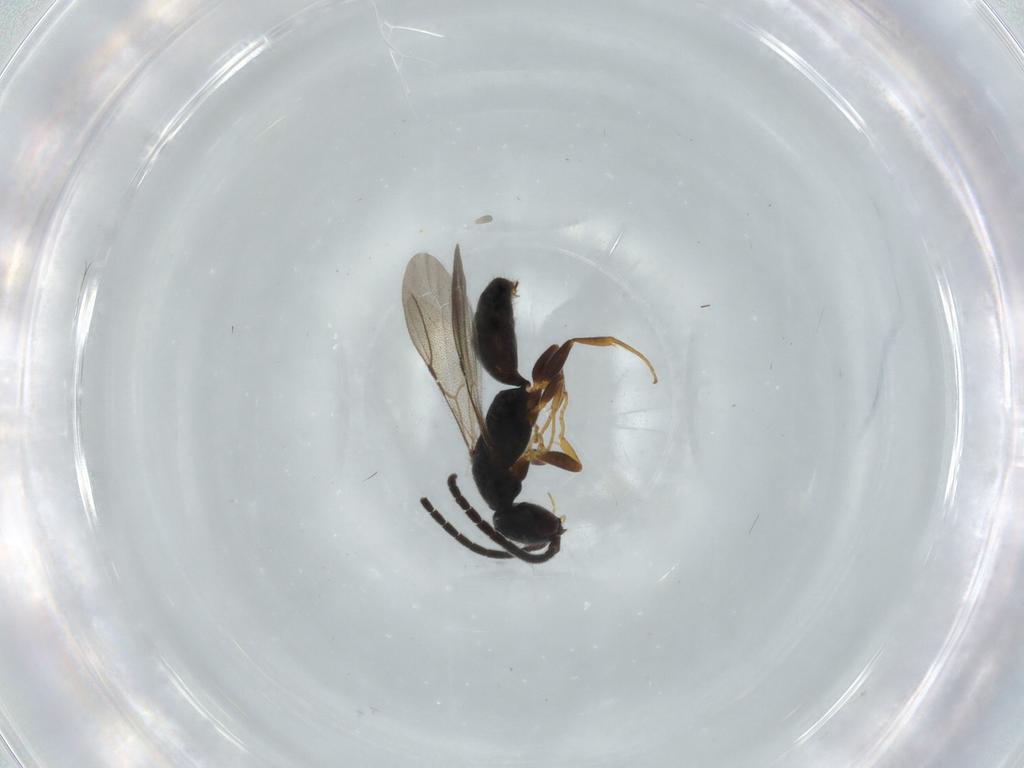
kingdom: Animalia
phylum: Arthropoda
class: Insecta
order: Hymenoptera
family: Bethylidae
